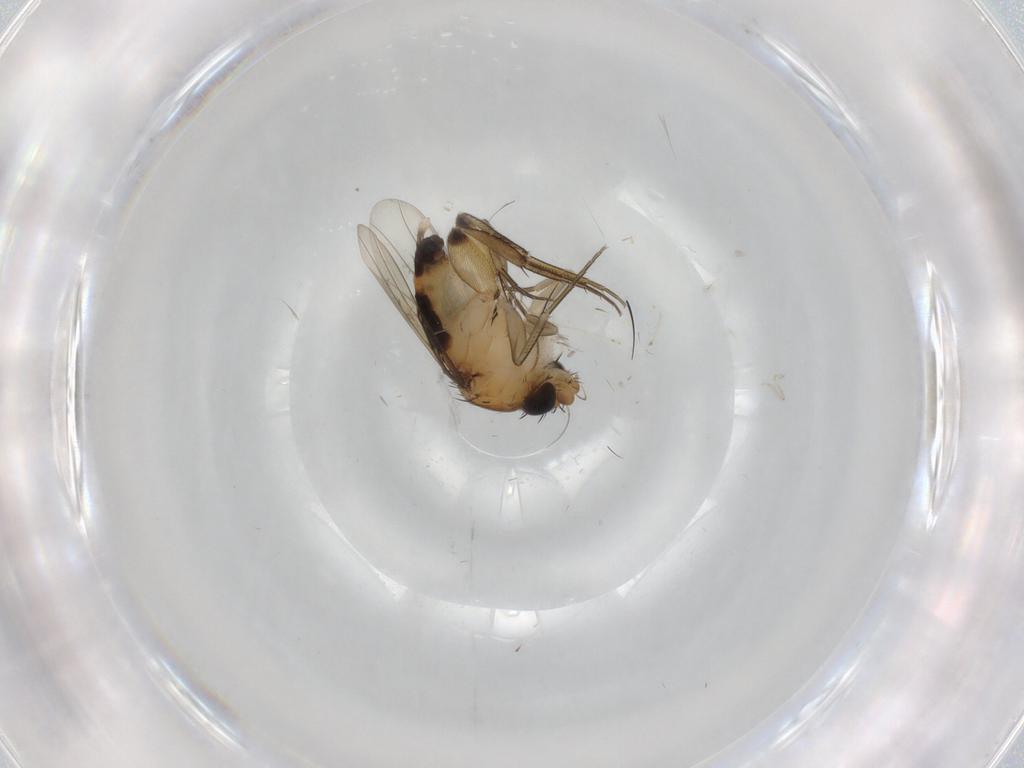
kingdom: Animalia
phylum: Arthropoda
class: Insecta
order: Diptera
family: Phoridae
